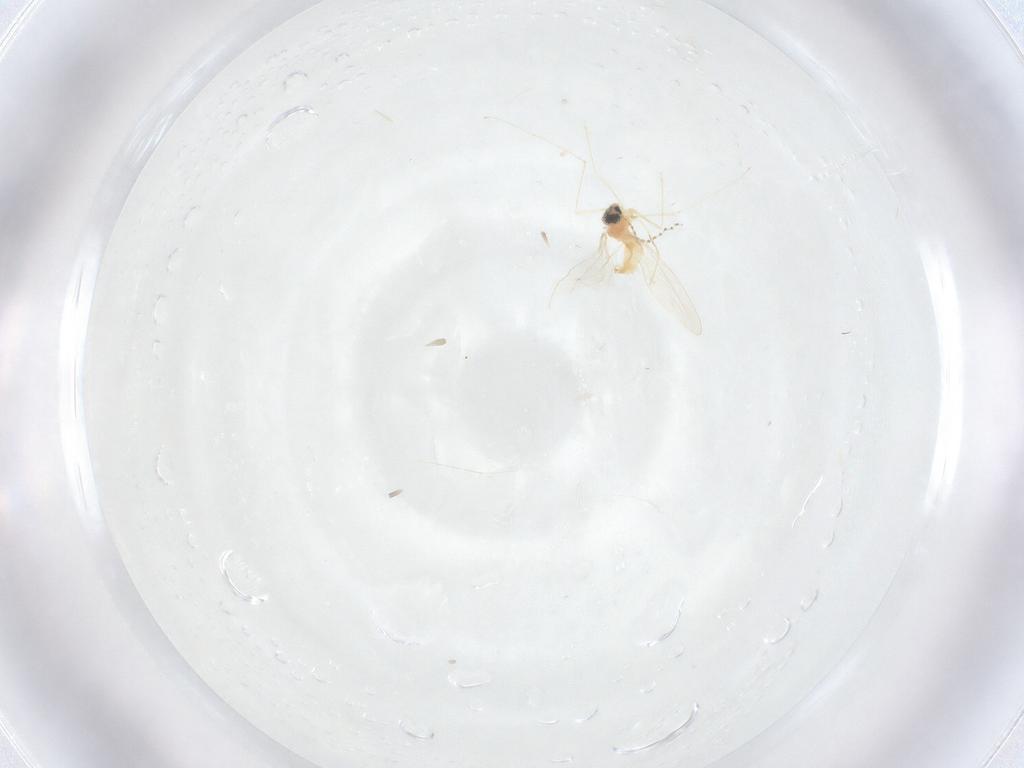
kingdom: Animalia
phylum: Arthropoda
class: Insecta
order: Diptera
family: Cecidomyiidae
